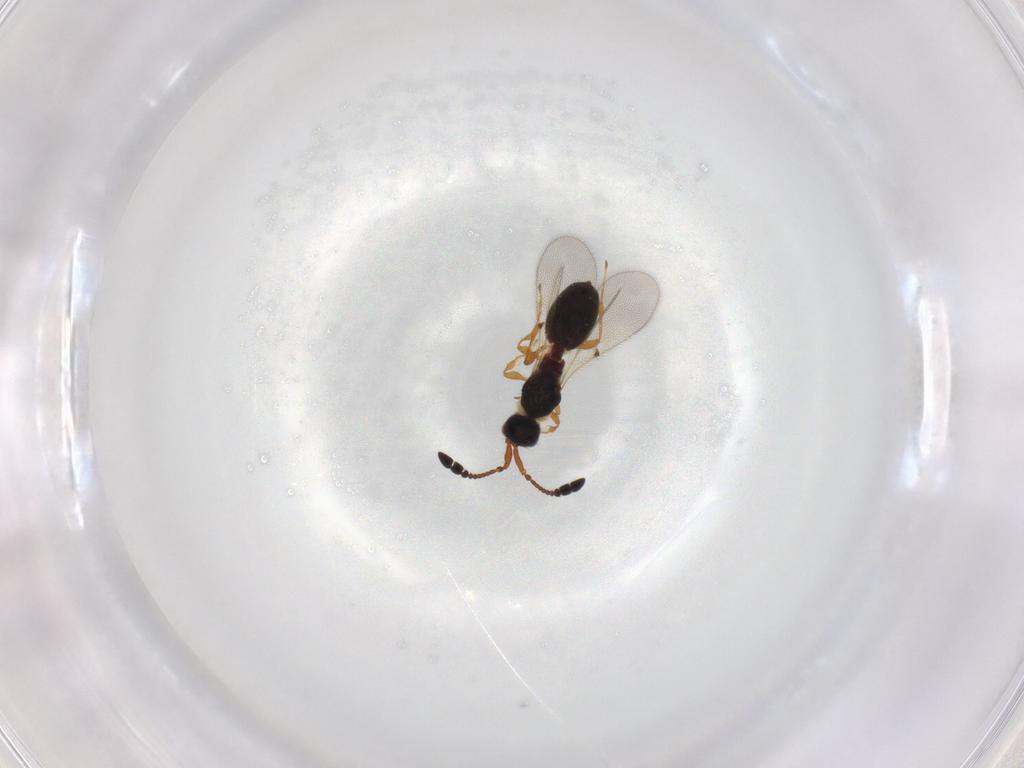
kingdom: Animalia
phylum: Arthropoda
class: Insecta
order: Hymenoptera
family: Diapriidae
